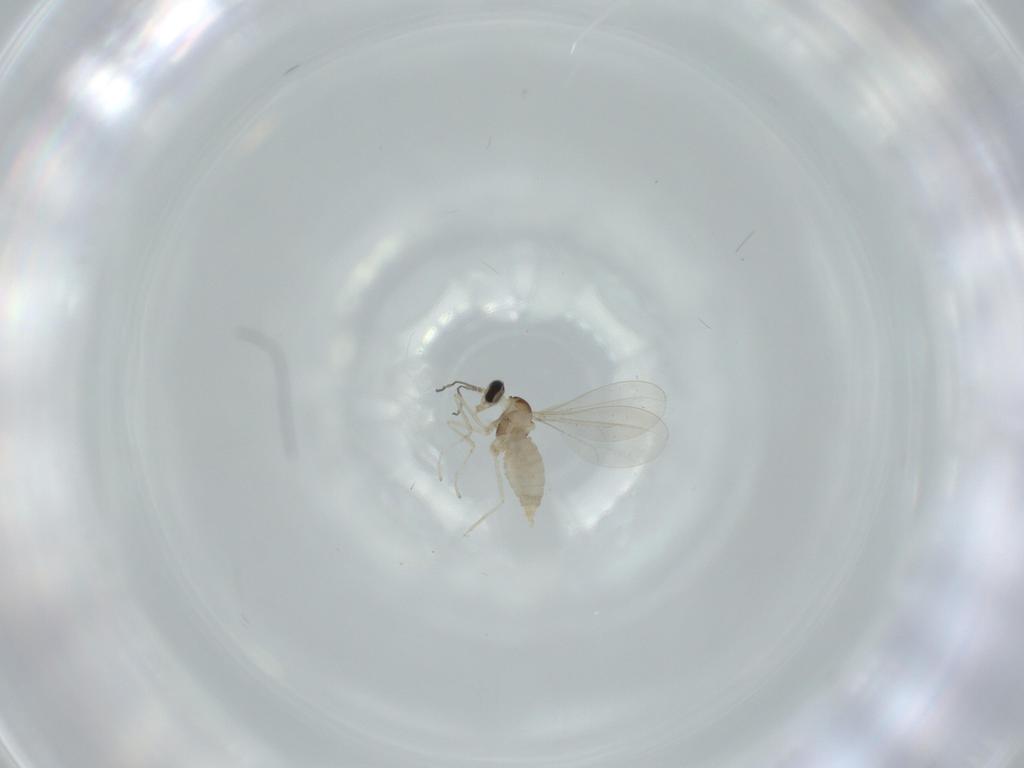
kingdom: Animalia
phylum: Arthropoda
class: Insecta
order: Diptera
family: Cecidomyiidae
